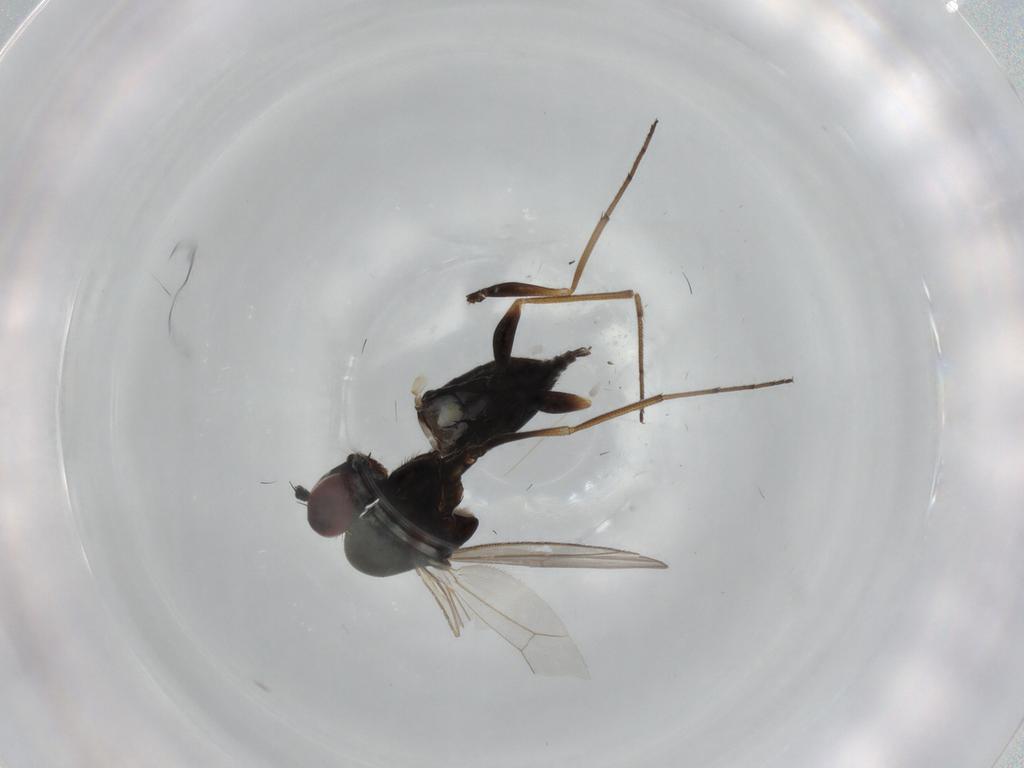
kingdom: Animalia
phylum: Arthropoda
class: Insecta
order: Diptera
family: Dolichopodidae
